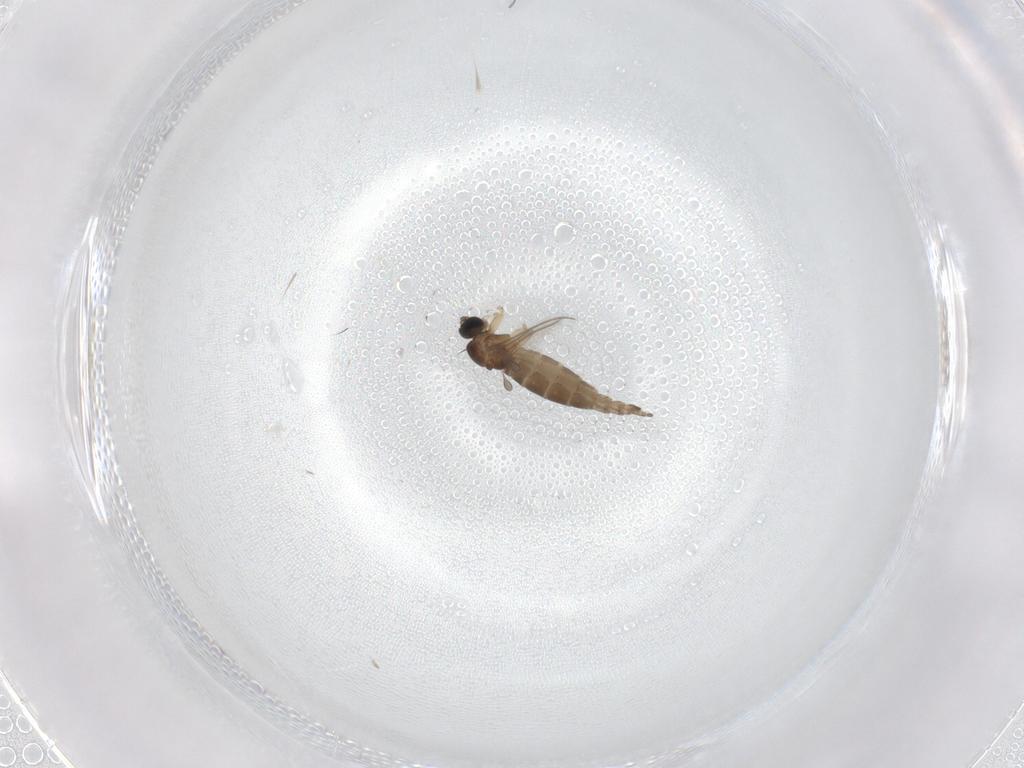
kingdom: Animalia
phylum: Arthropoda
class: Insecta
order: Diptera
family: Sciaridae
